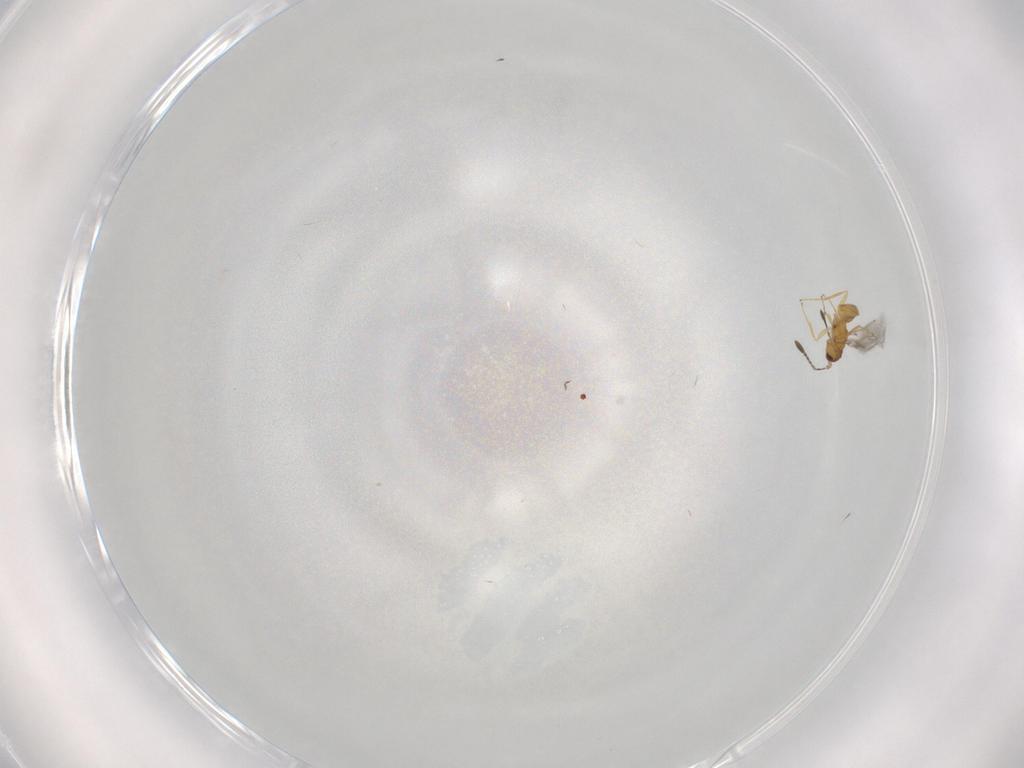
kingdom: Animalia
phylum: Arthropoda
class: Insecta
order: Hymenoptera
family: Mymaridae
